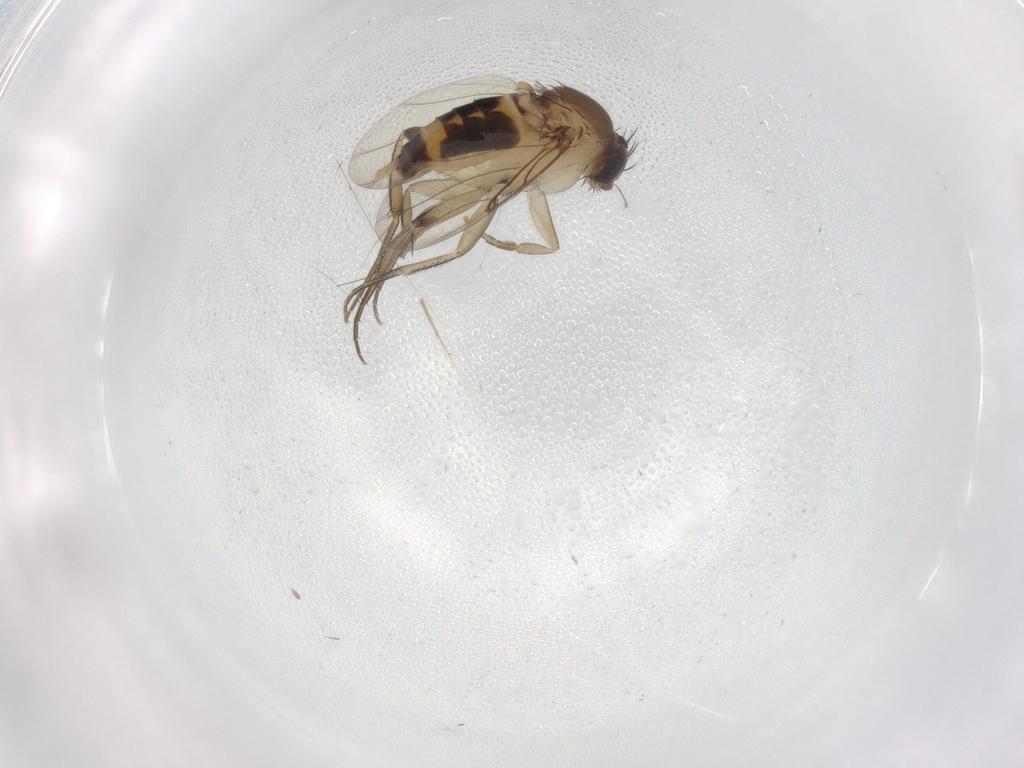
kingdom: Animalia
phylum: Arthropoda
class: Insecta
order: Diptera
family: Phoridae
